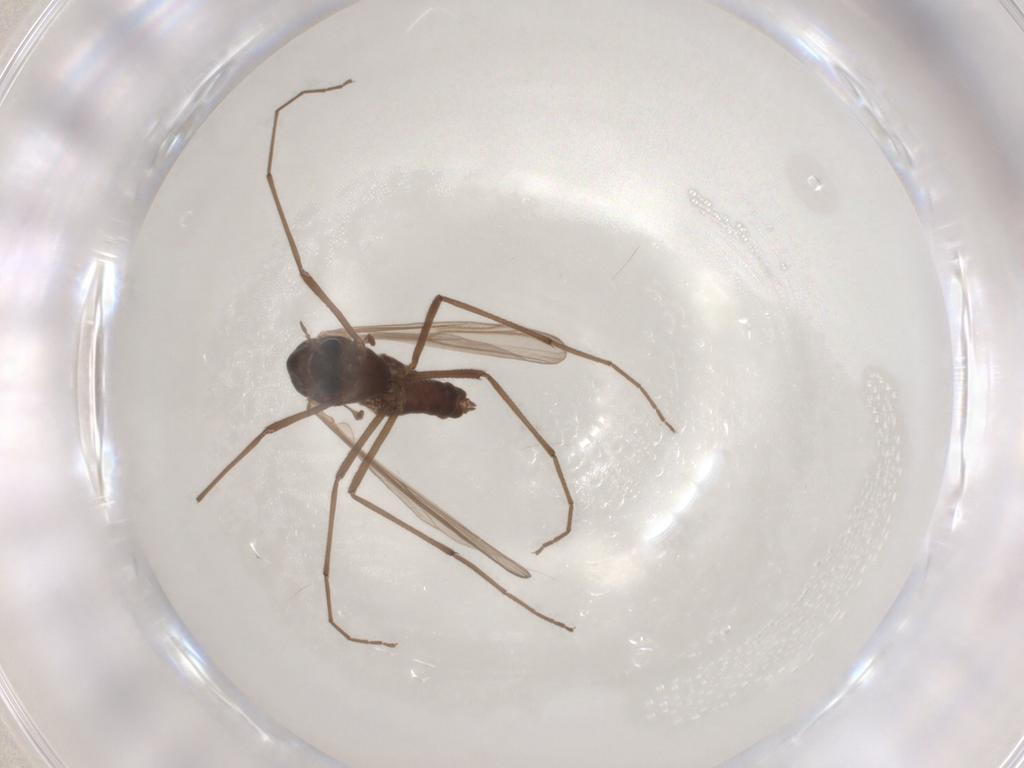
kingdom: Animalia
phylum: Arthropoda
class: Insecta
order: Diptera
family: Chironomidae
